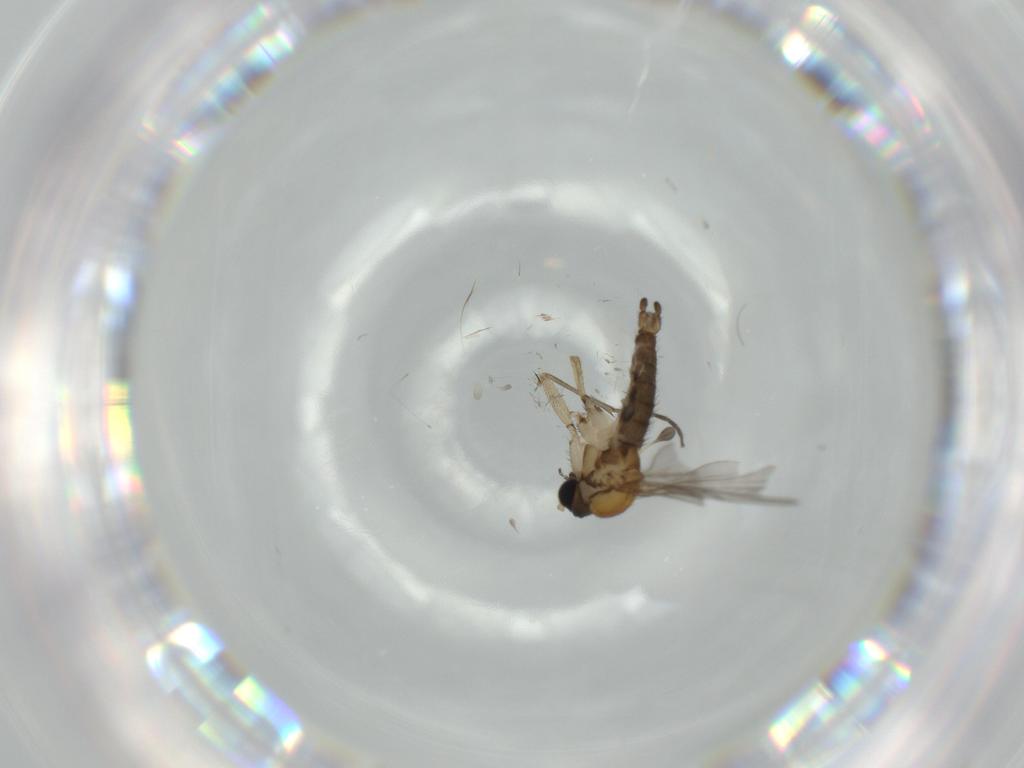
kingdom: Animalia
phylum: Arthropoda
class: Insecta
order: Diptera
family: Sciaridae
